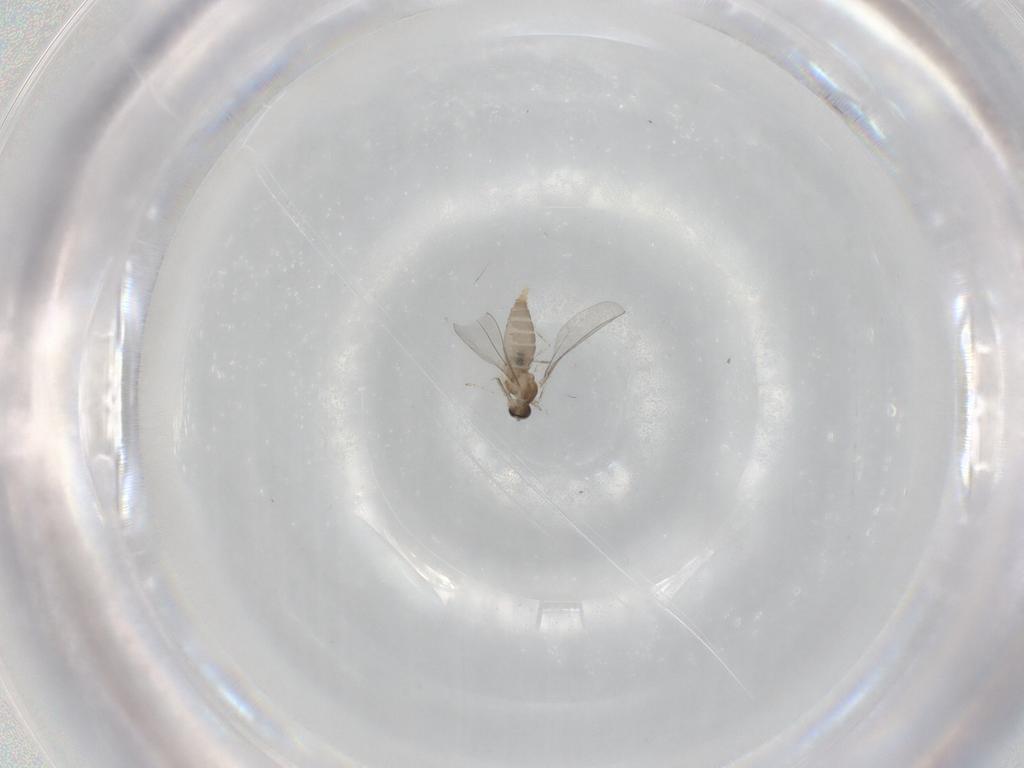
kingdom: Animalia
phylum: Arthropoda
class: Insecta
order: Diptera
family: Cecidomyiidae
